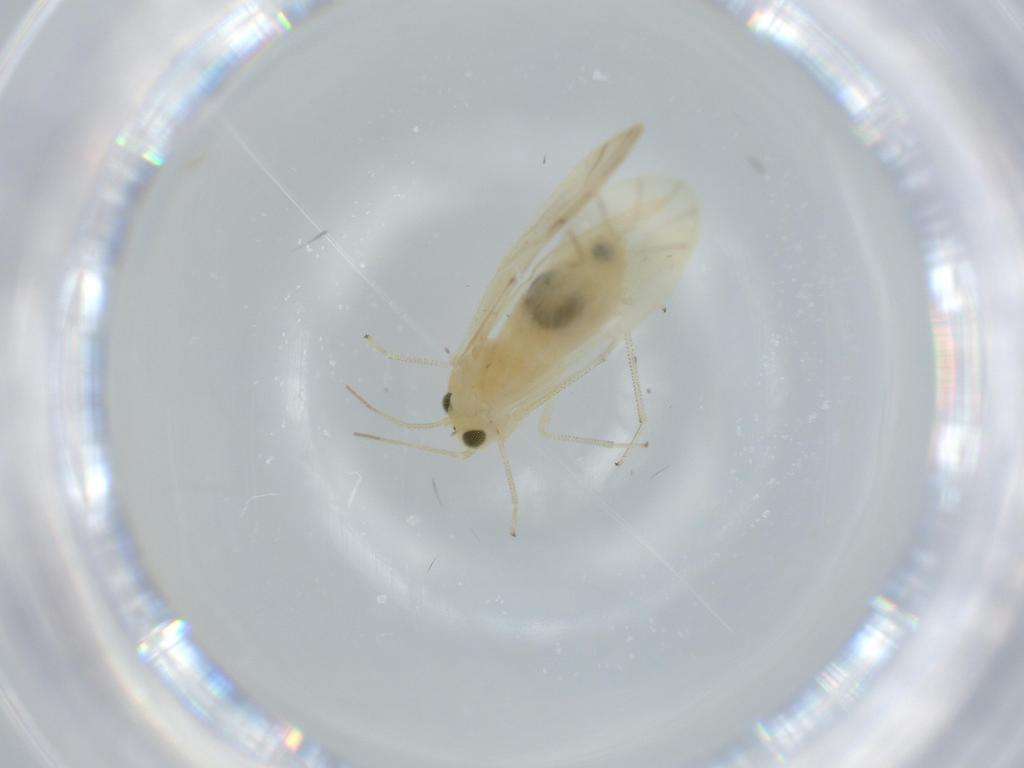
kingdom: Animalia
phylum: Arthropoda
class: Insecta
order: Psocodea
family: Caeciliusidae
